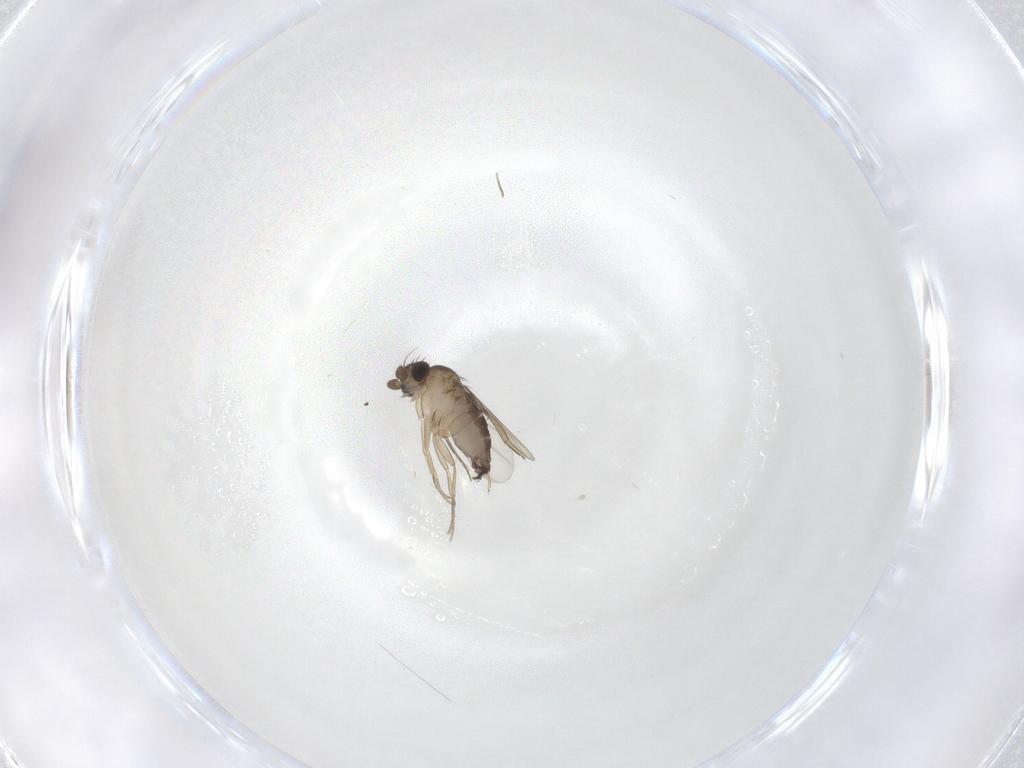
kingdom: Animalia
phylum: Arthropoda
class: Insecta
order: Diptera
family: Phoridae
